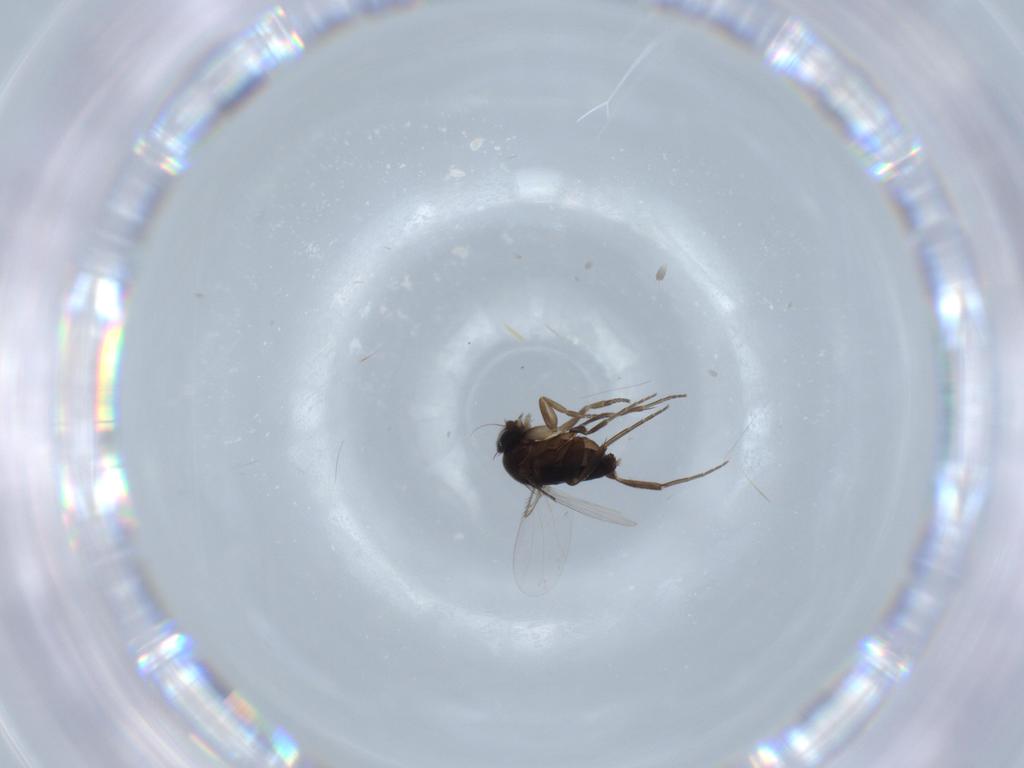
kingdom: Animalia
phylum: Arthropoda
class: Insecta
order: Diptera
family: Phoridae
